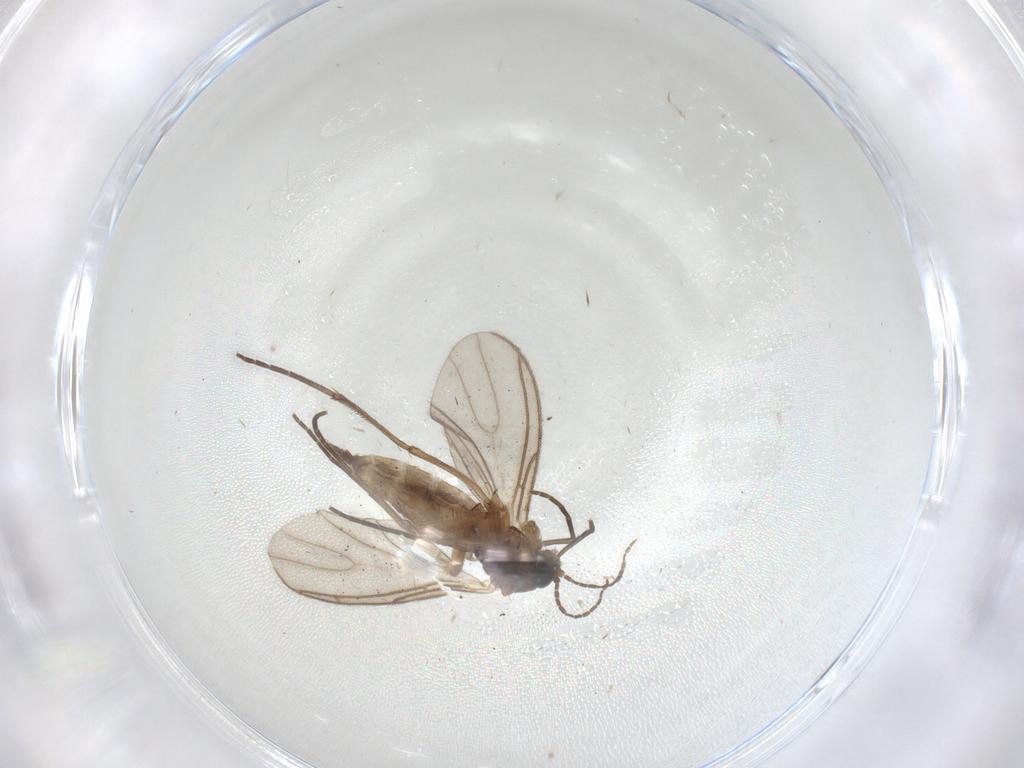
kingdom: Animalia
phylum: Arthropoda
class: Insecta
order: Diptera
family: Sciaridae
